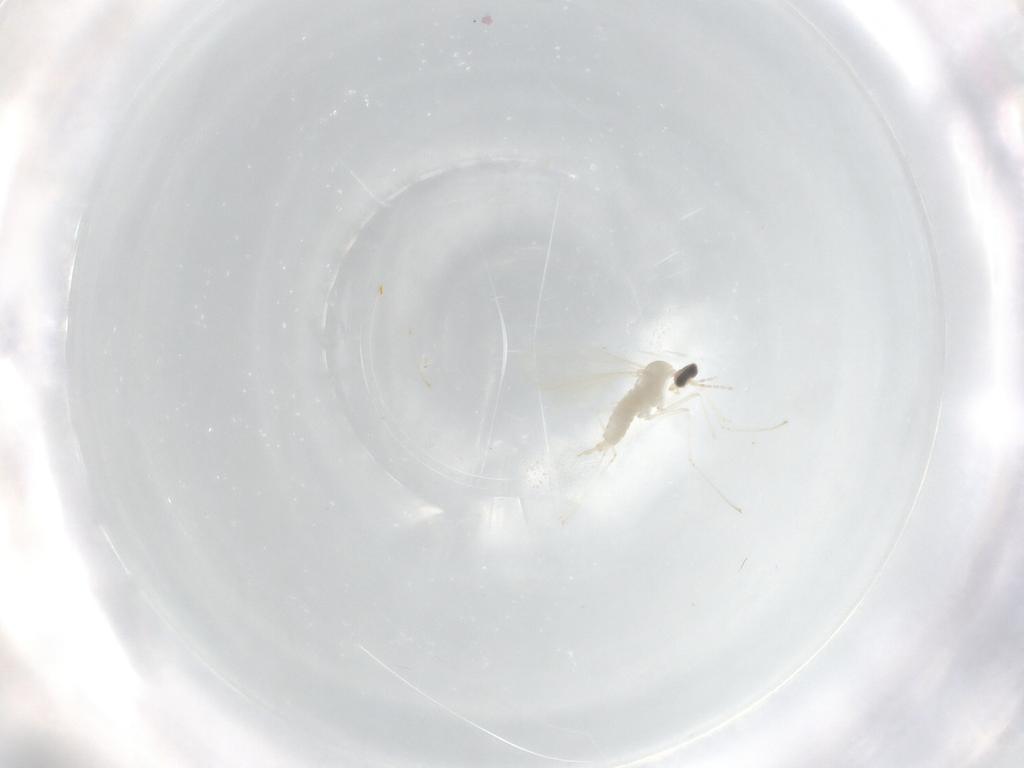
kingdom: Animalia
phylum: Arthropoda
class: Insecta
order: Diptera
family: Cecidomyiidae
